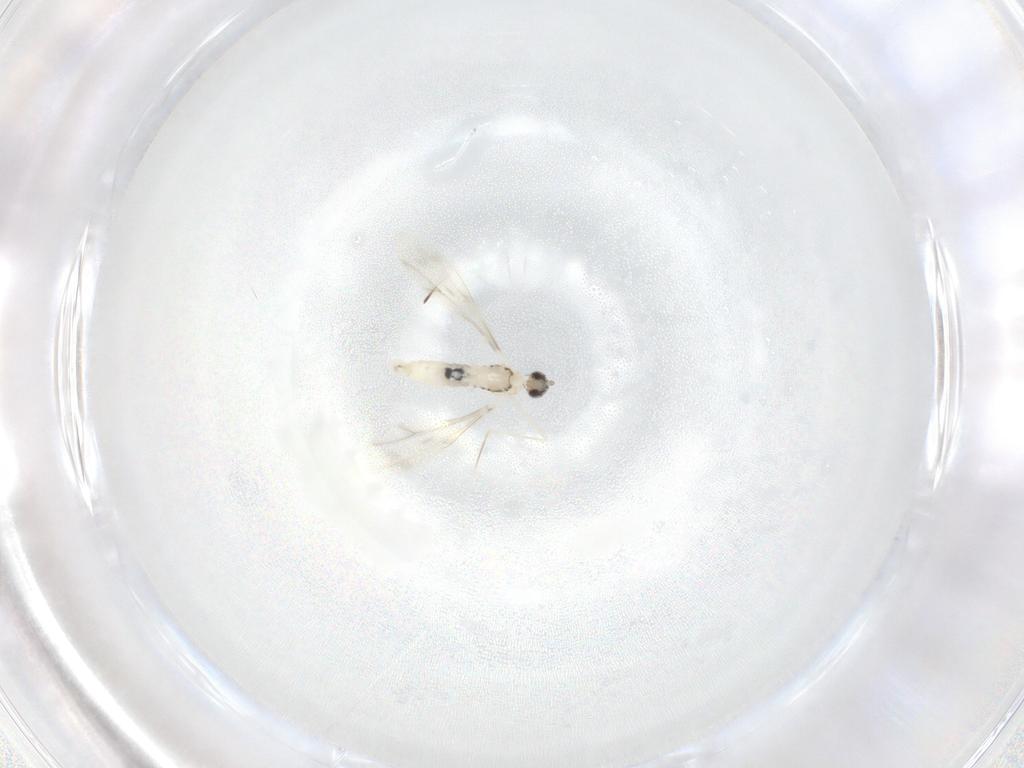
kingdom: Animalia
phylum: Arthropoda
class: Insecta
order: Diptera
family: Cecidomyiidae
